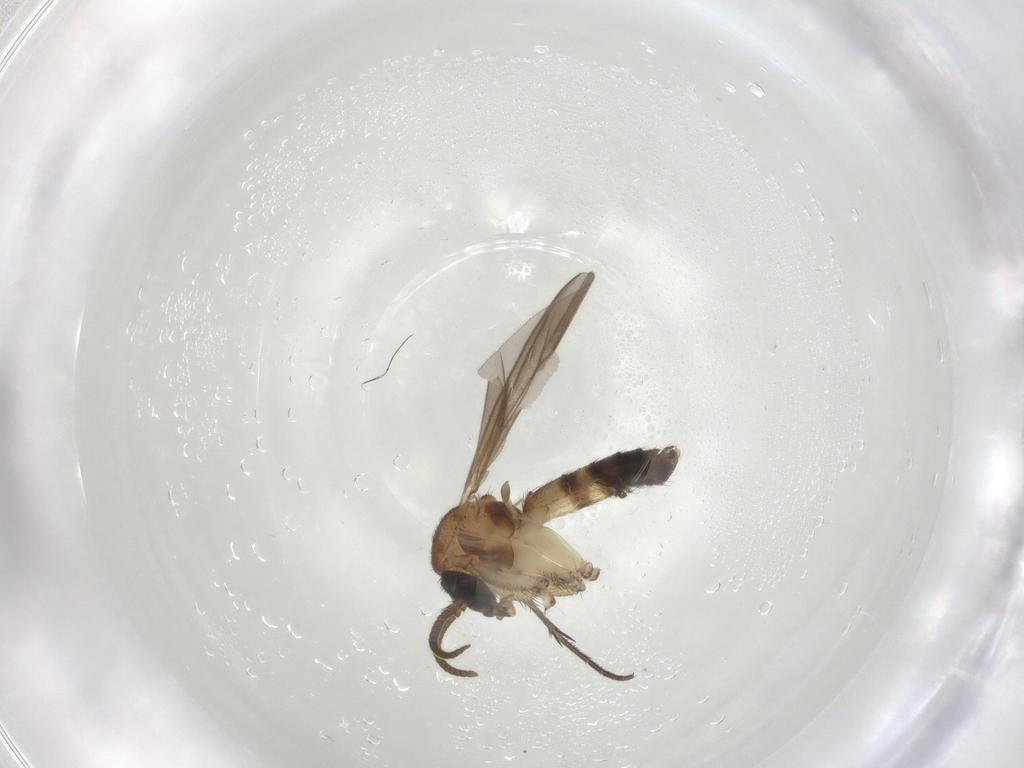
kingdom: Animalia
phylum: Arthropoda
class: Insecta
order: Diptera
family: Mycetophilidae
